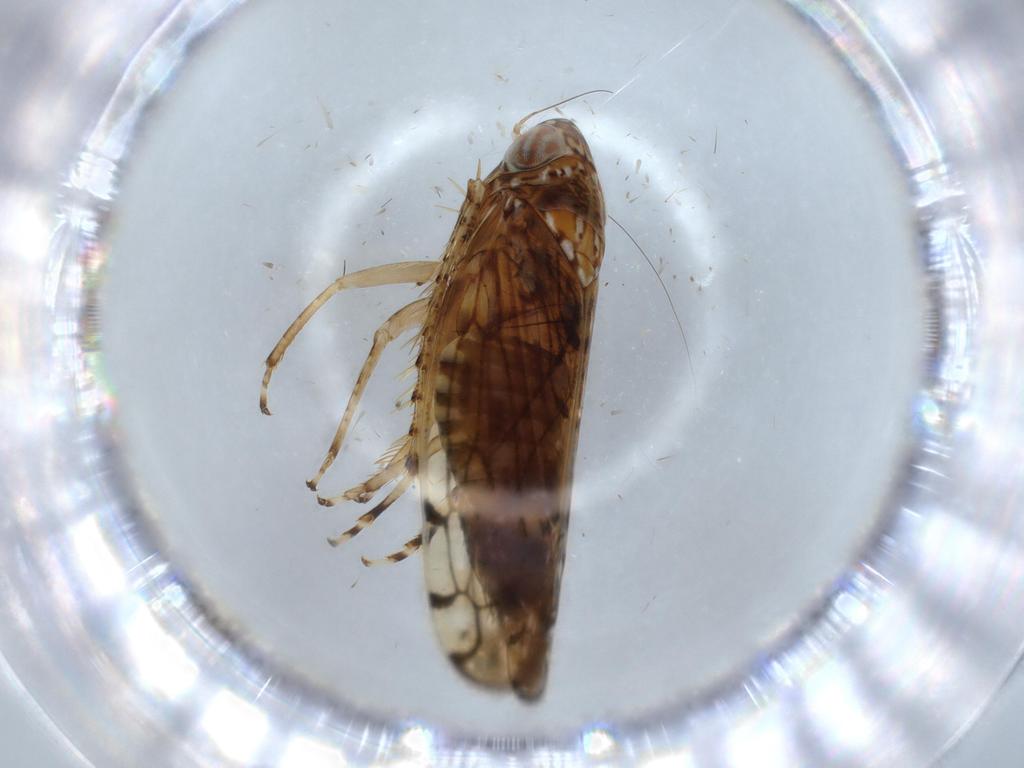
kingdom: Animalia
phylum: Arthropoda
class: Insecta
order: Hemiptera
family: Cicadellidae
